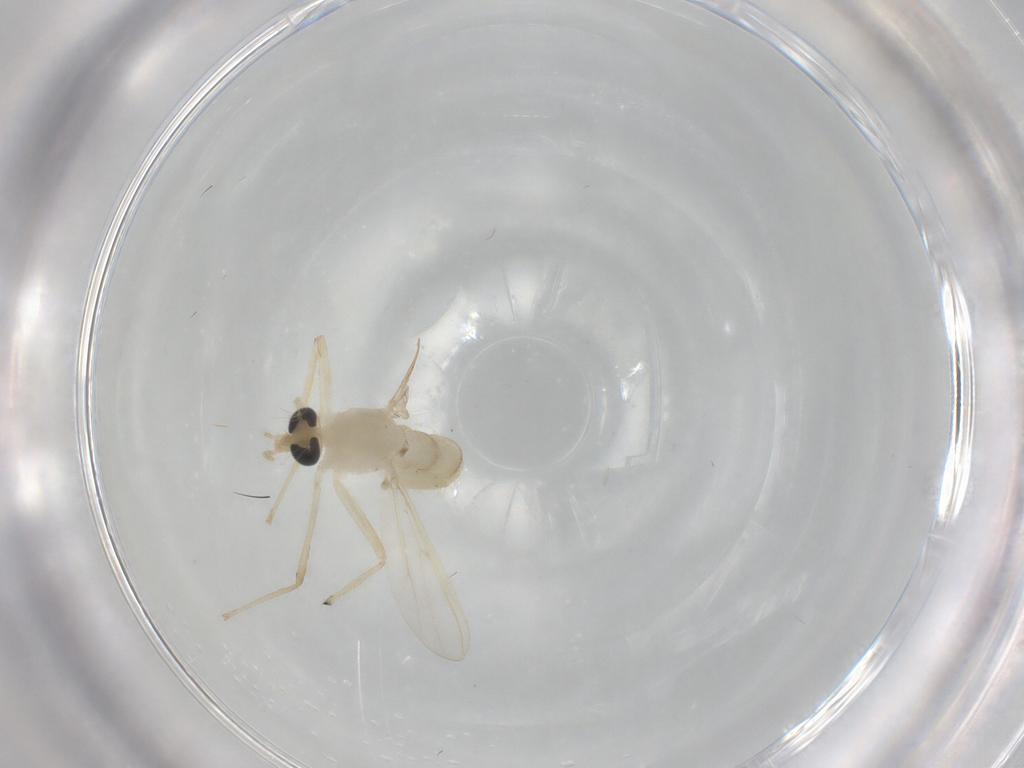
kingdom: Animalia
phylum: Arthropoda
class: Insecta
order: Diptera
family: Chironomidae
